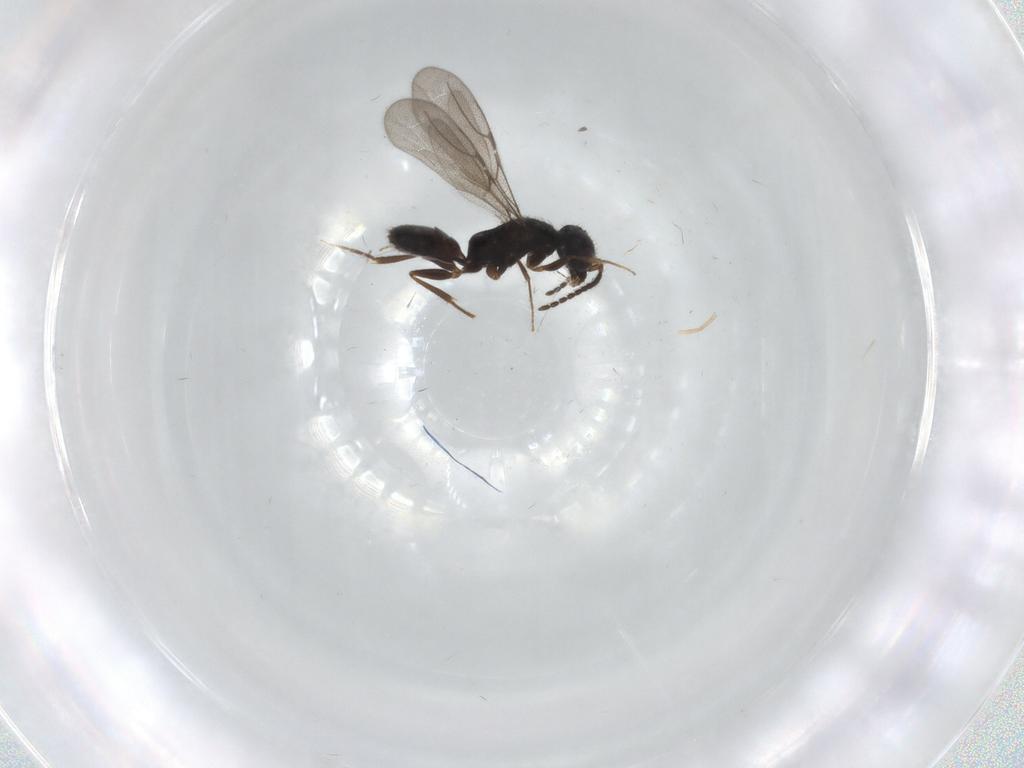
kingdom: Animalia
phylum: Arthropoda
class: Insecta
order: Hymenoptera
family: Bethylidae
